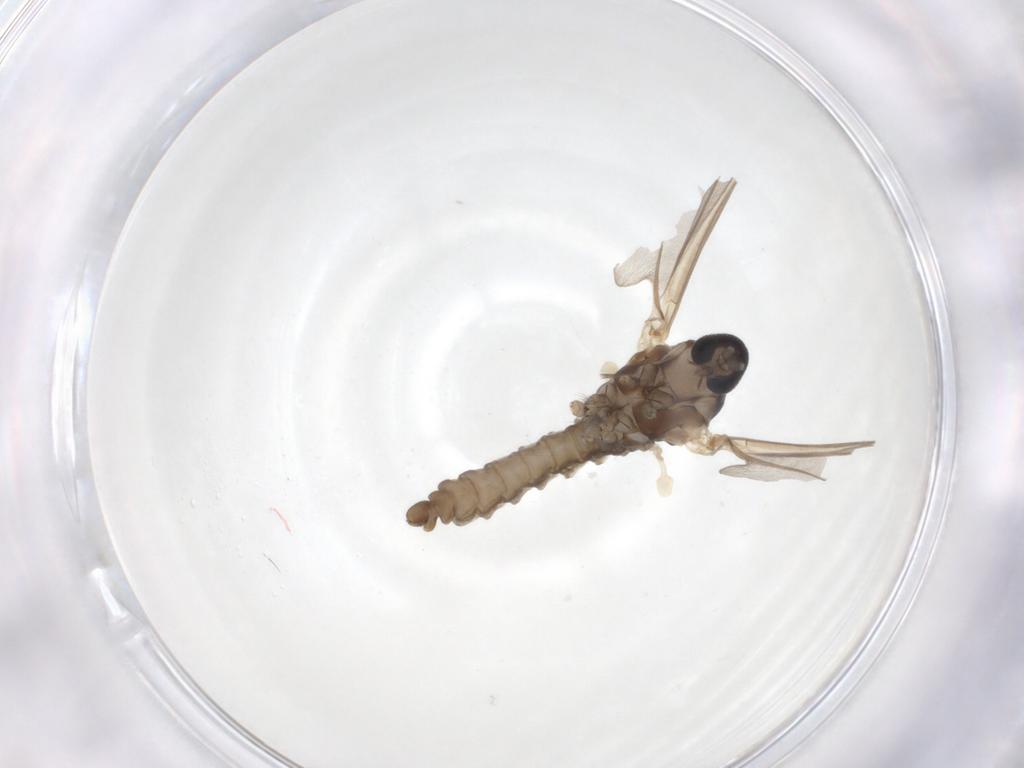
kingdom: Animalia
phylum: Arthropoda
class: Insecta
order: Diptera
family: Cecidomyiidae
